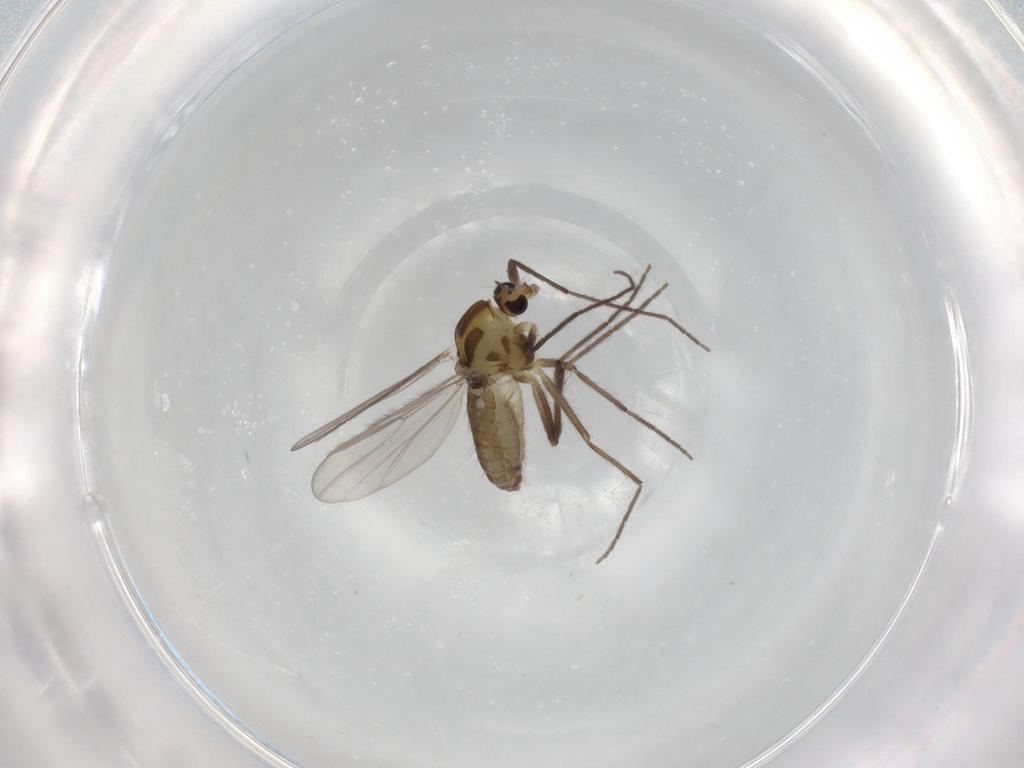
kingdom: Animalia
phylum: Arthropoda
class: Insecta
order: Diptera
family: Chironomidae
